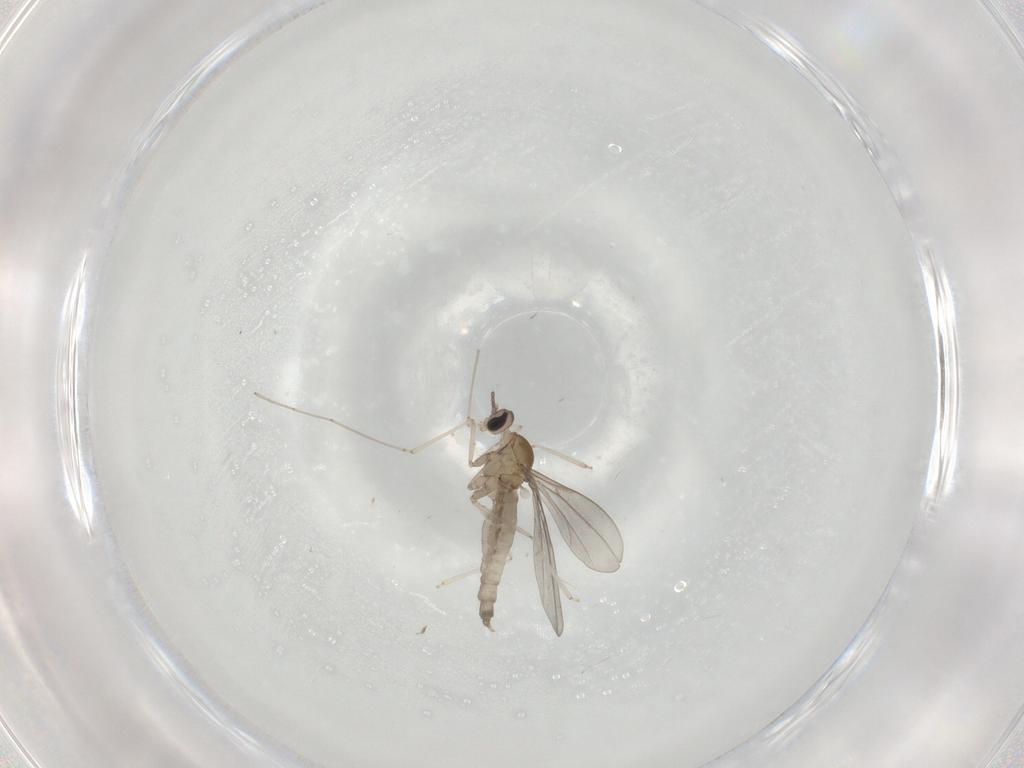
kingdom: Animalia
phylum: Arthropoda
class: Insecta
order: Diptera
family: Cecidomyiidae
